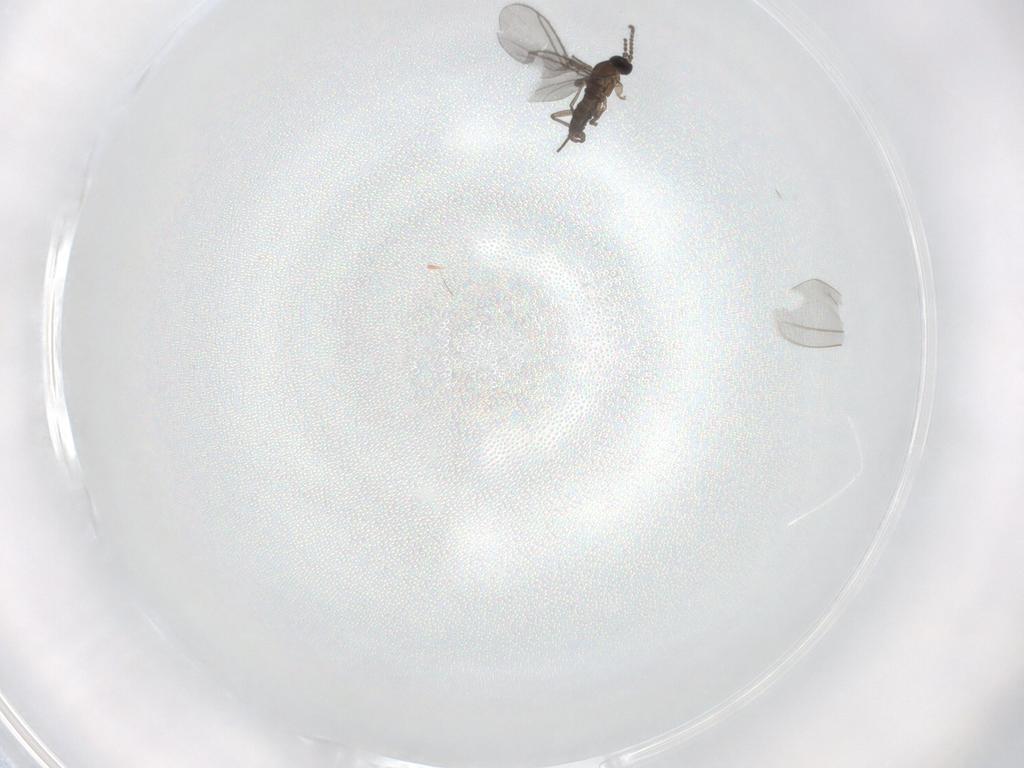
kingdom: Animalia
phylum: Arthropoda
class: Insecta
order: Diptera
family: Sciaridae
